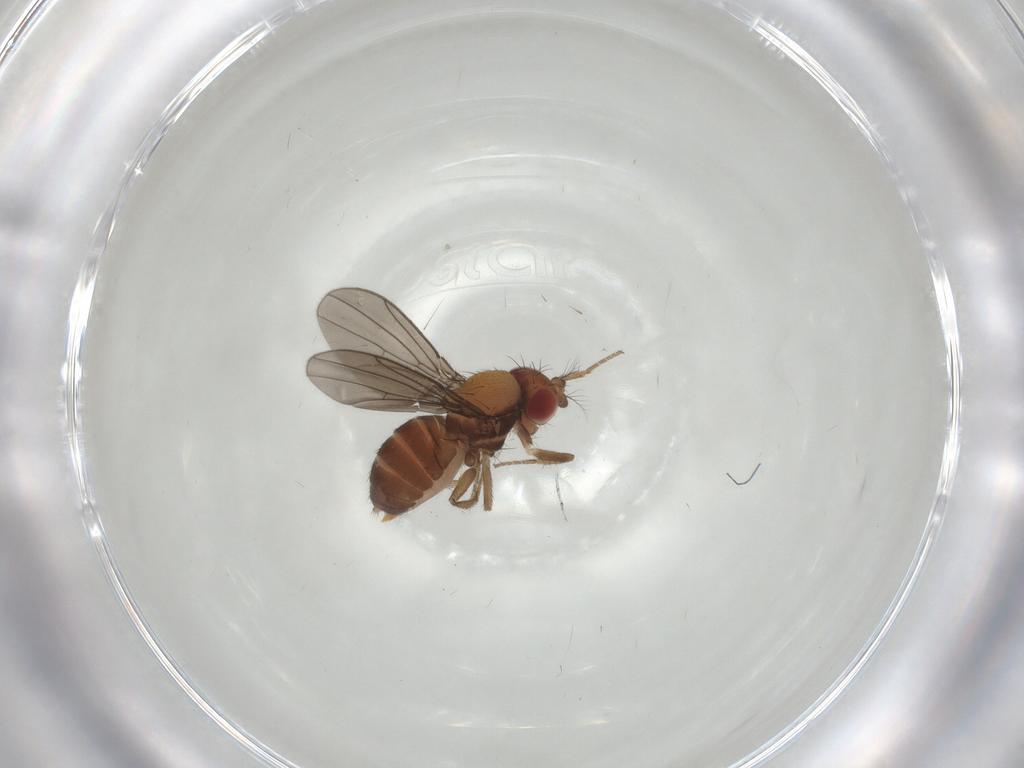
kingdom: Animalia
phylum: Arthropoda
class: Insecta
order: Diptera
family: Drosophilidae
